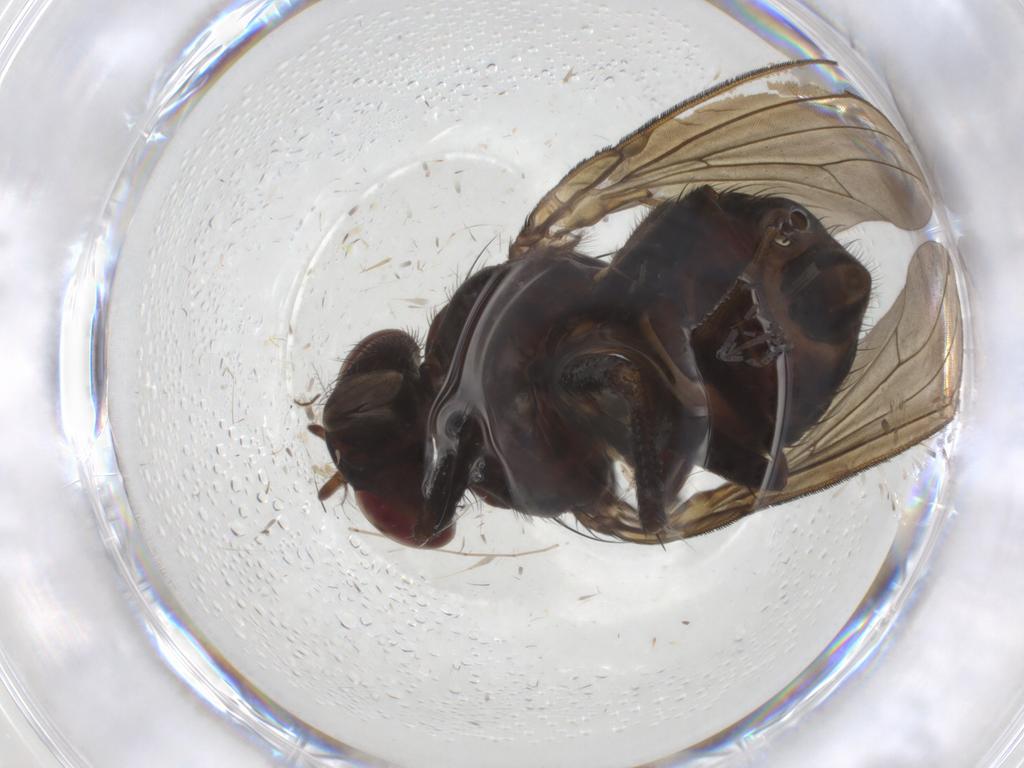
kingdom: Animalia
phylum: Arthropoda
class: Insecta
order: Diptera
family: Lauxaniidae
